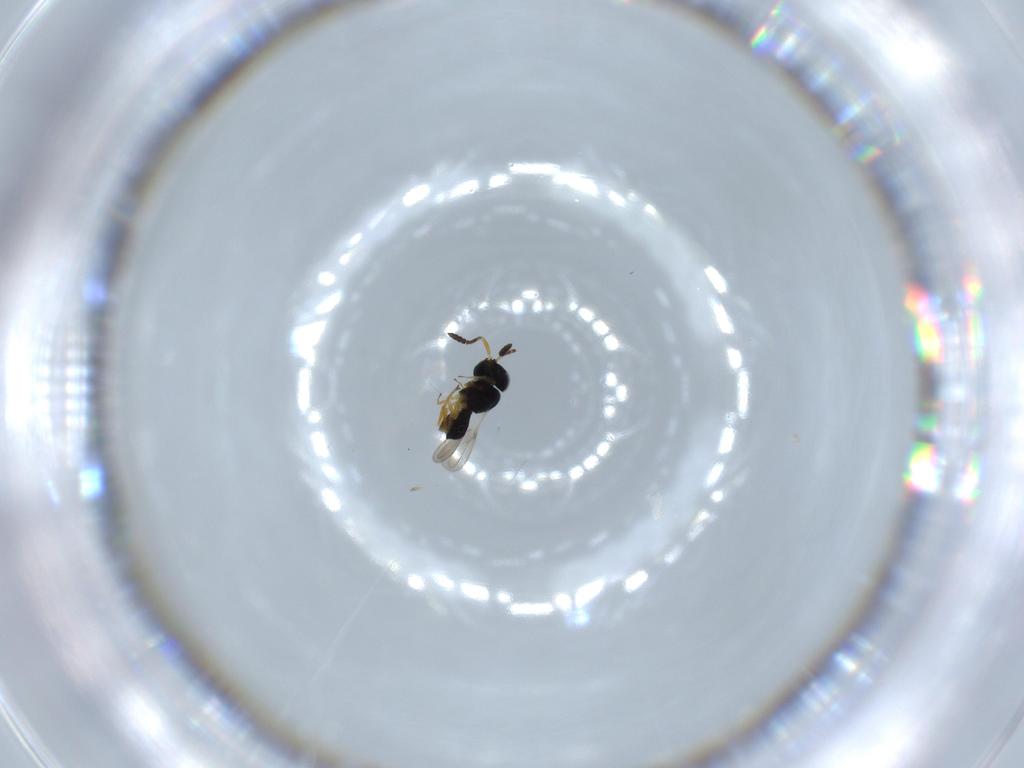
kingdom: Animalia
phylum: Arthropoda
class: Insecta
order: Hymenoptera
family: Scelionidae
